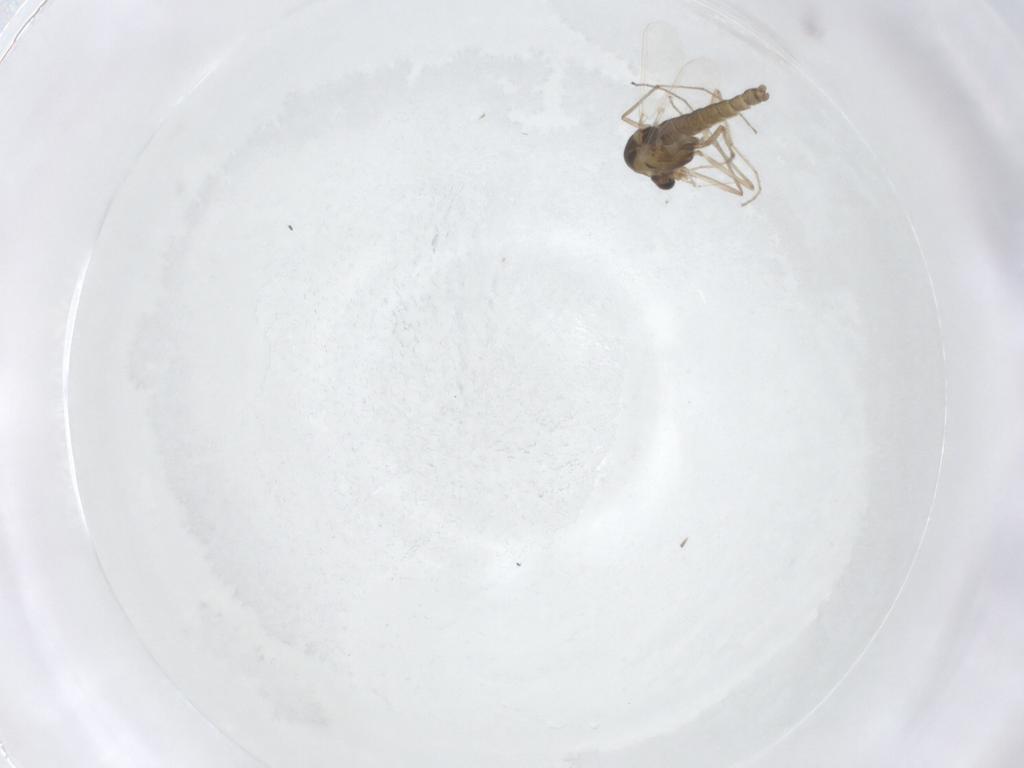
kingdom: Animalia
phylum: Arthropoda
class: Insecta
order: Diptera
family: Chironomidae
